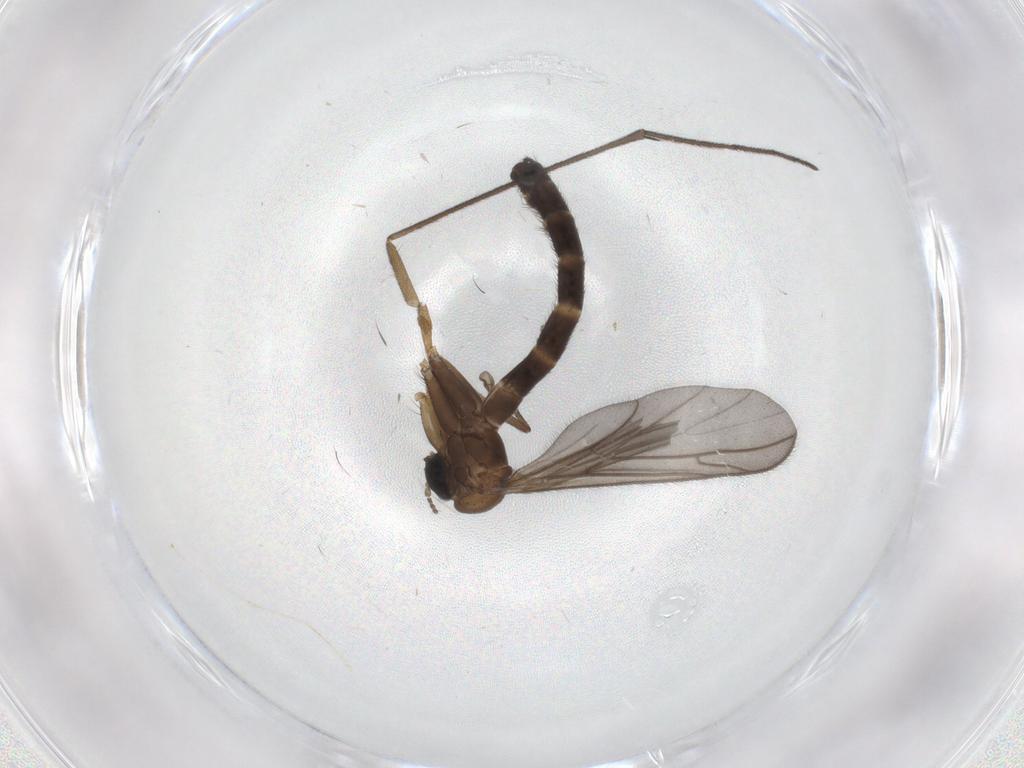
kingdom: Animalia
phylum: Arthropoda
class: Insecta
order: Diptera
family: Keroplatidae
